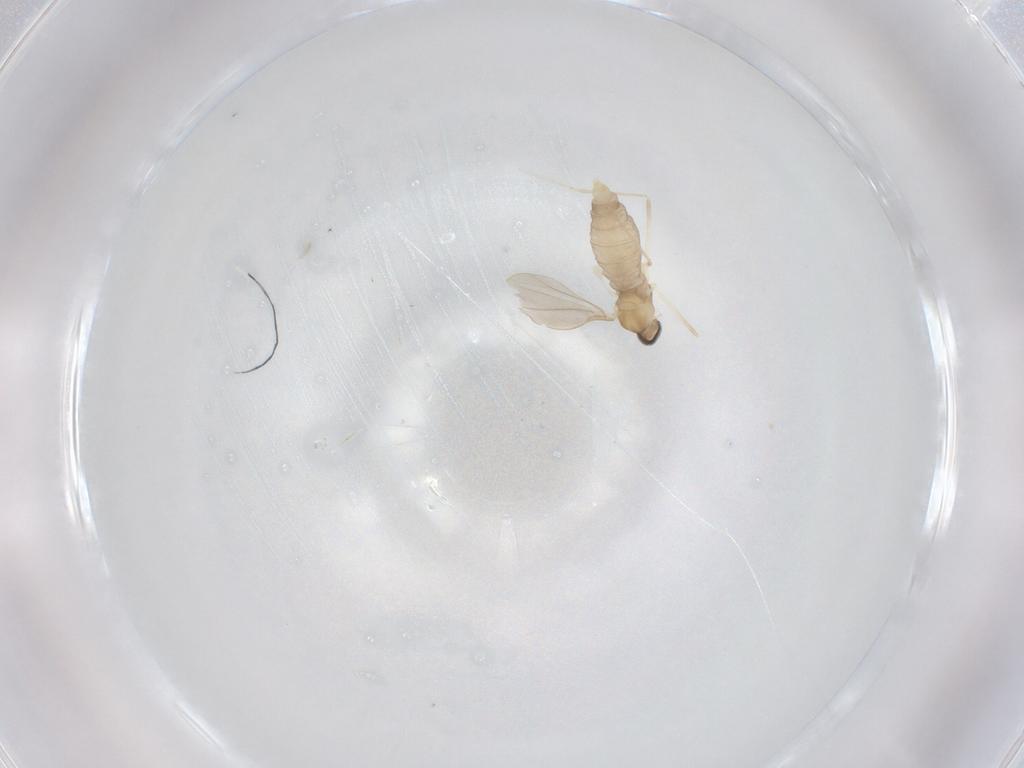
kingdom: Animalia
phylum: Arthropoda
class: Insecta
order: Diptera
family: Cecidomyiidae
